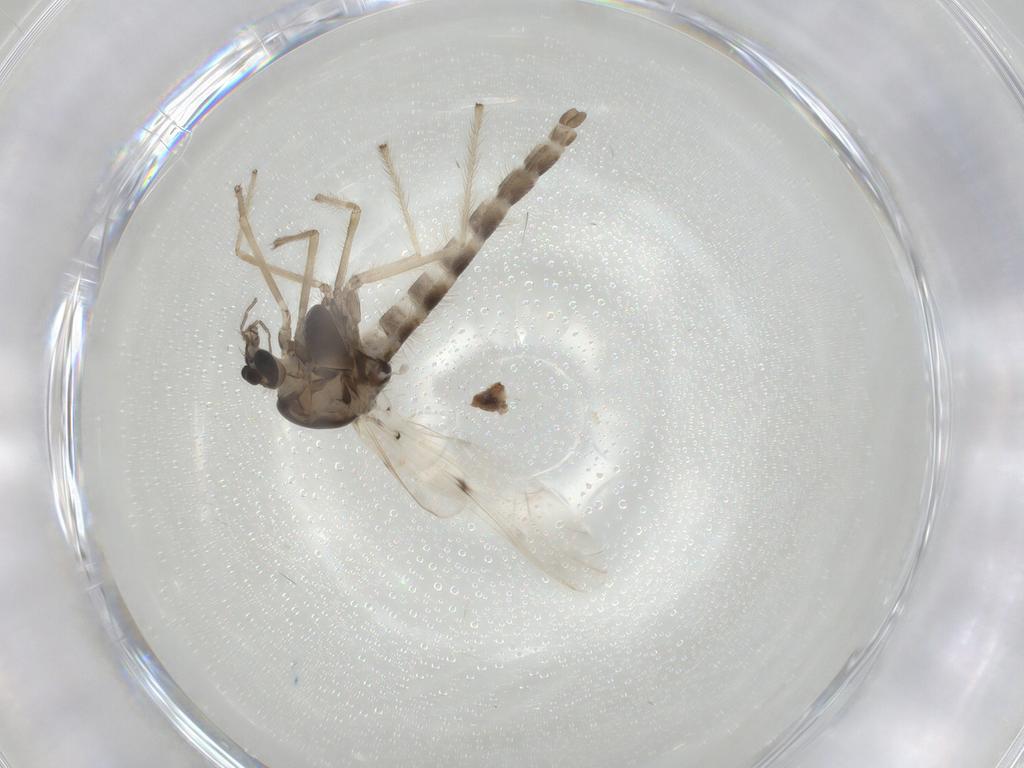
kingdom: Animalia
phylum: Arthropoda
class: Insecta
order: Diptera
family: Chironomidae
